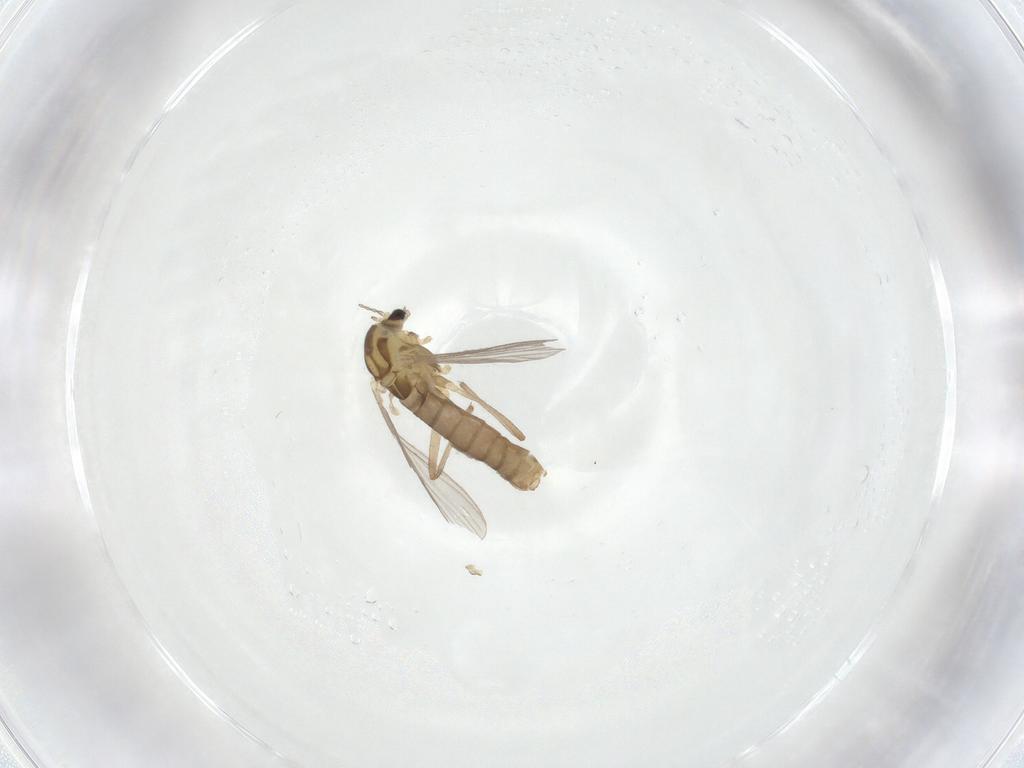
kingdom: Animalia
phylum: Arthropoda
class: Insecta
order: Diptera
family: Chironomidae
